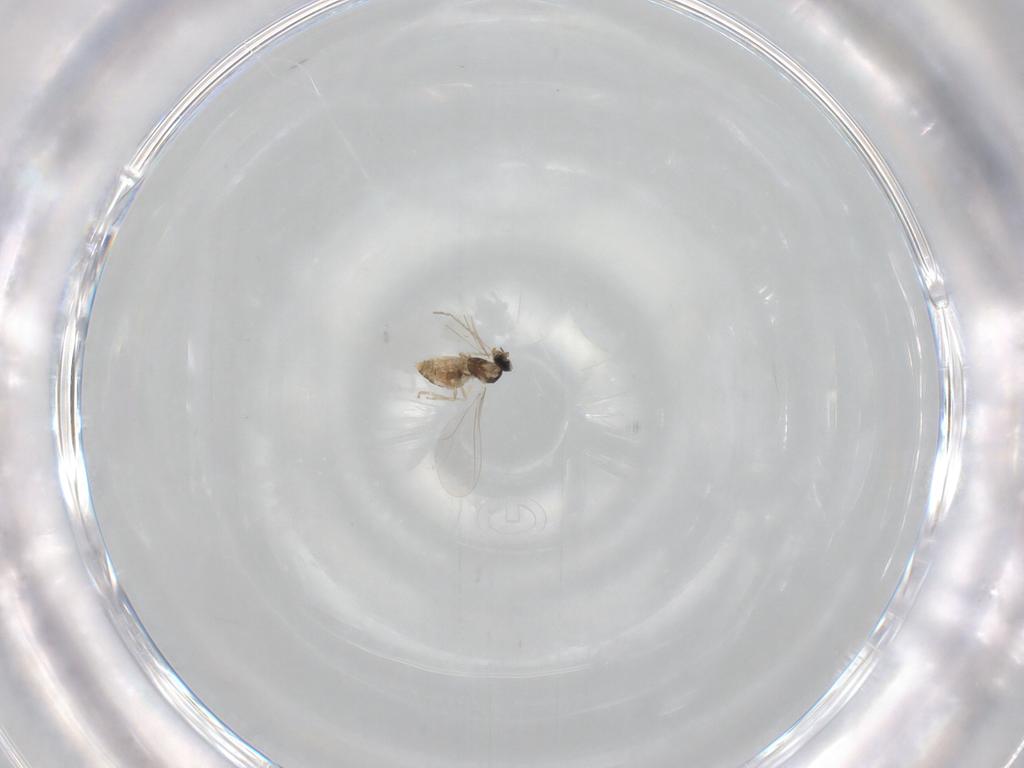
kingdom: Animalia
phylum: Arthropoda
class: Insecta
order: Diptera
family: Cecidomyiidae
